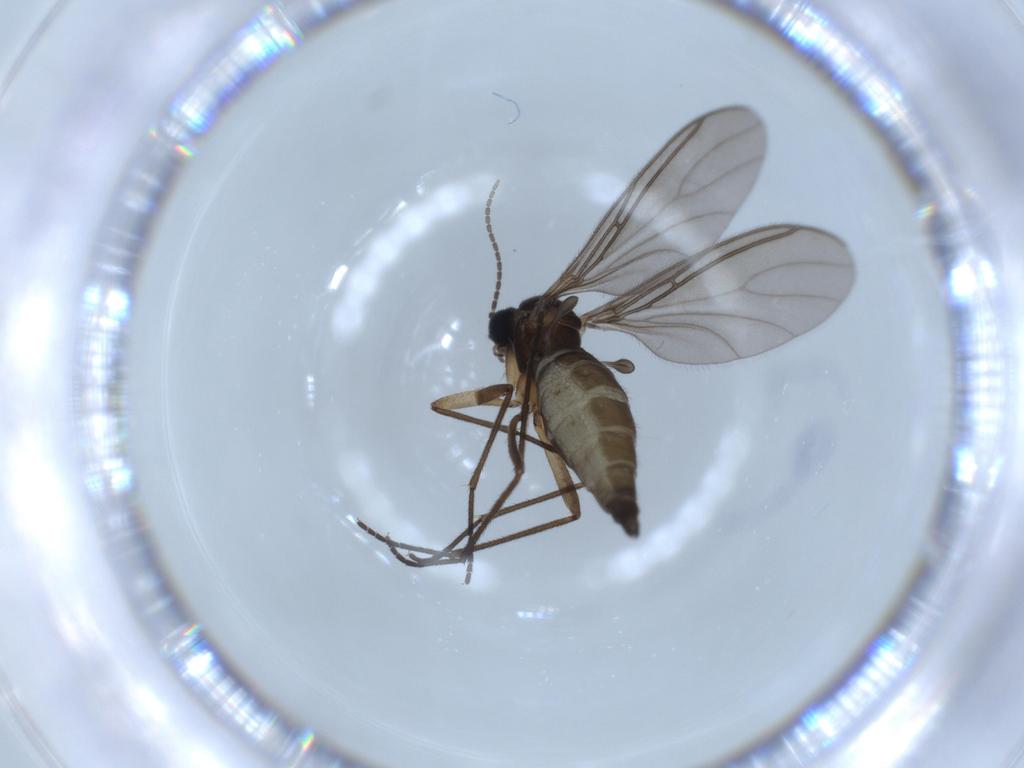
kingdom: Animalia
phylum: Arthropoda
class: Insecta
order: Diptera
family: Sciaridae
